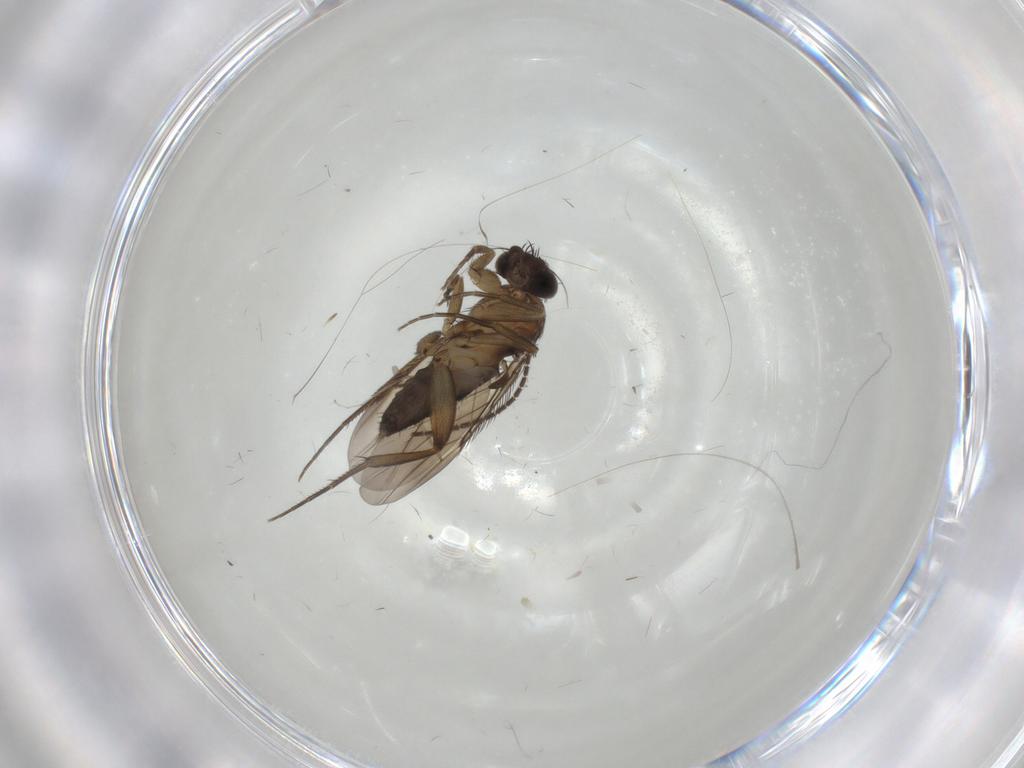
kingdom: Animalia
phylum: Arthropoda
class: Insecta
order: Diptera
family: Phoridae
